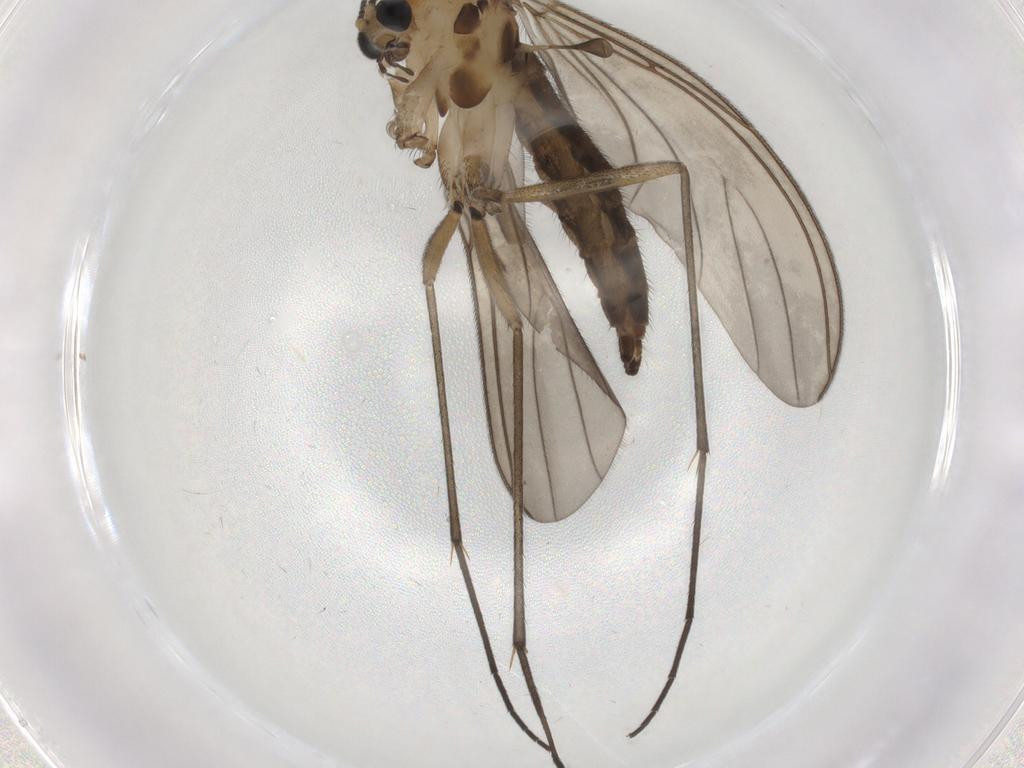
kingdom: Animalia
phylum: Arthropoda
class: Insecta
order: Diptera
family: Sciaridae
